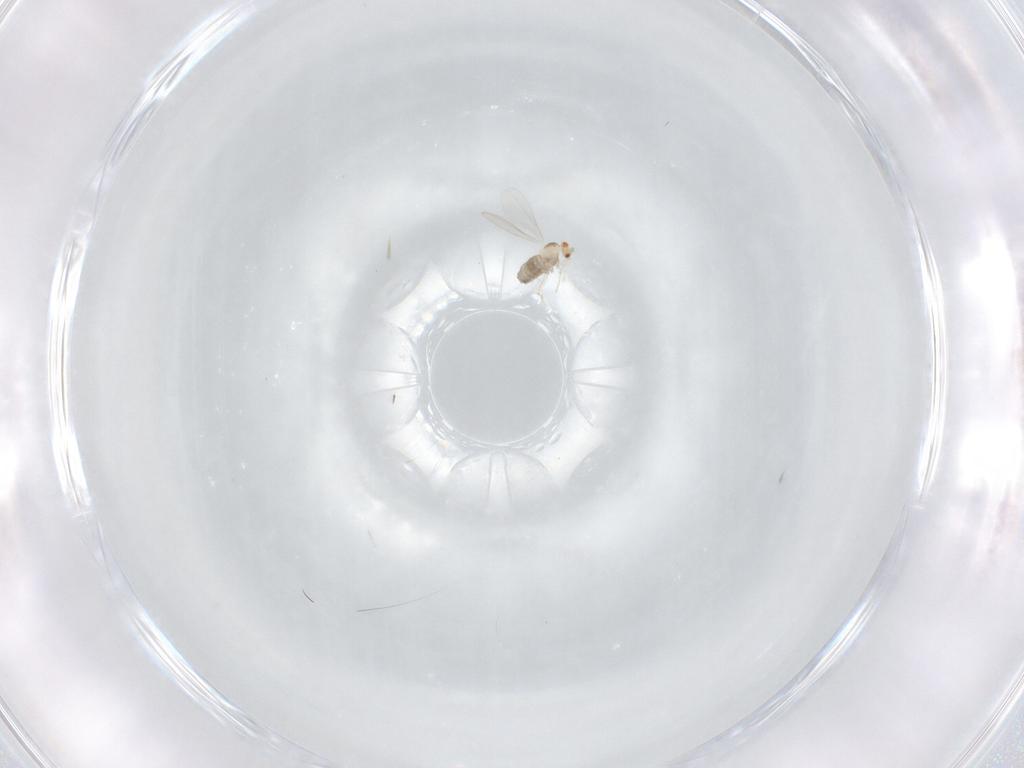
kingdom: Animalia
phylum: Arthropoda
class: Insecta
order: Diptera
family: Cecidomyiidae
